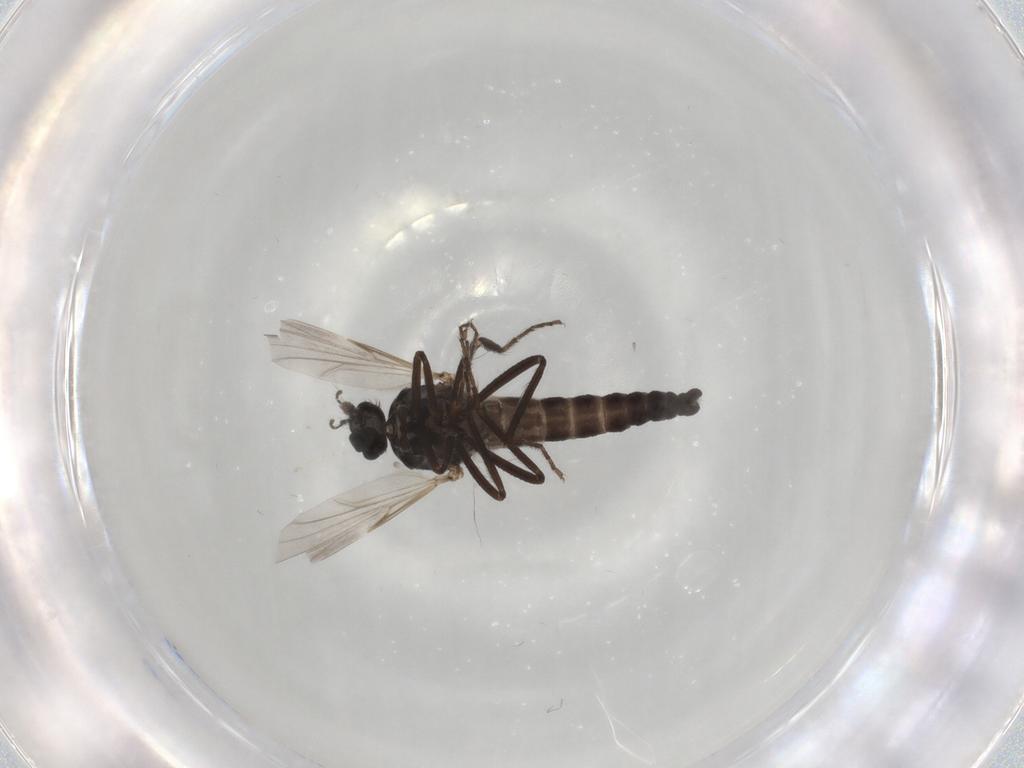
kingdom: Animalia
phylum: Arthropoda
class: Insecta
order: Diptera
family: Ceratopogonidae
